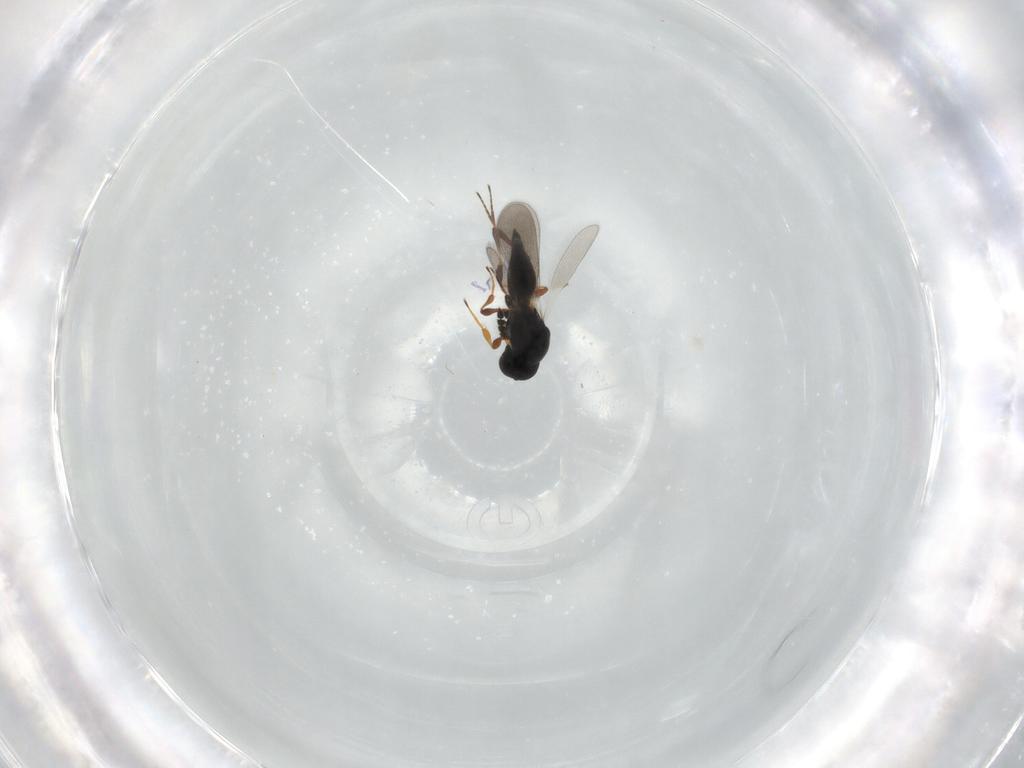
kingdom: Animalia
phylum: Arthropoda
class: Insecta
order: Hymenoptera
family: Platygastridae
